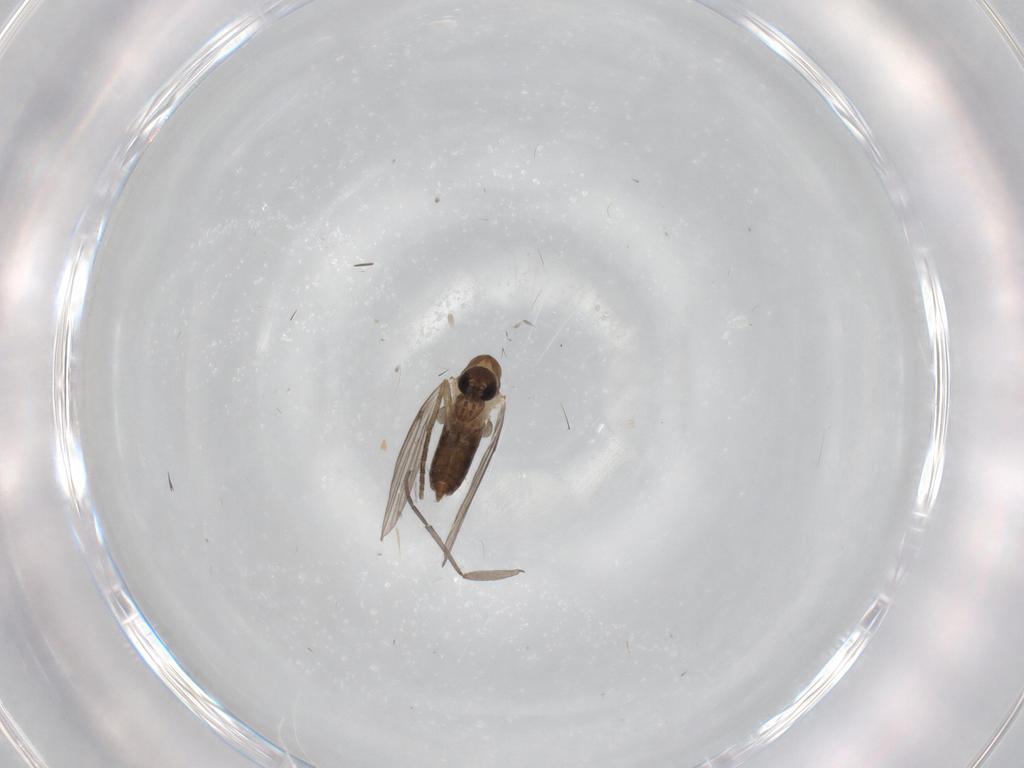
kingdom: Animalia
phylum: Arthropoda
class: Insecta
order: Diptera
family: Psychodidae
